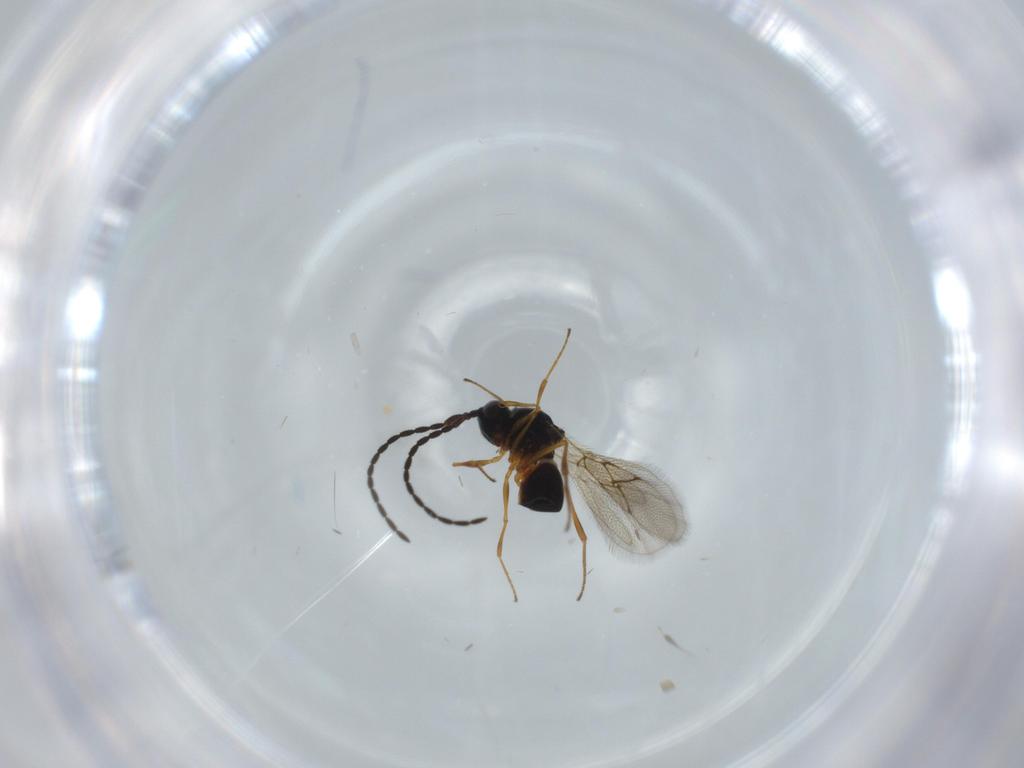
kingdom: Animalia
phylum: Arthropoda
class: Insecta
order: Hymenoptera
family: Figitidae
